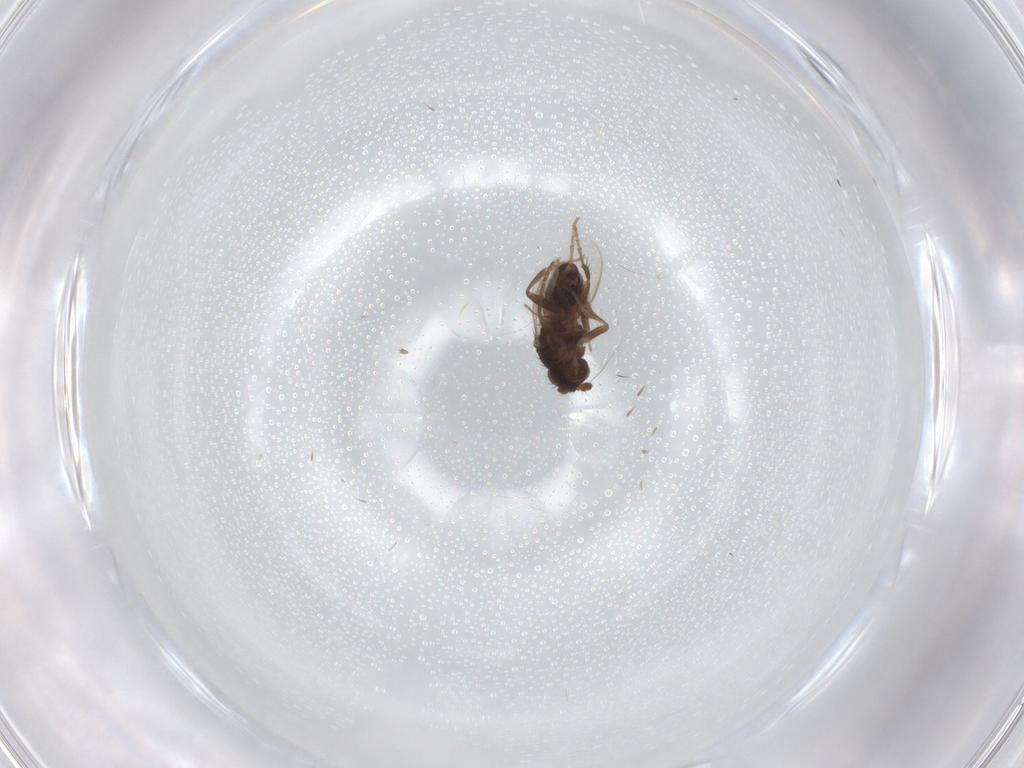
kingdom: Animalia
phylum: Arthropoda
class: Insecta
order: Diptera
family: Sphaeroceridae
